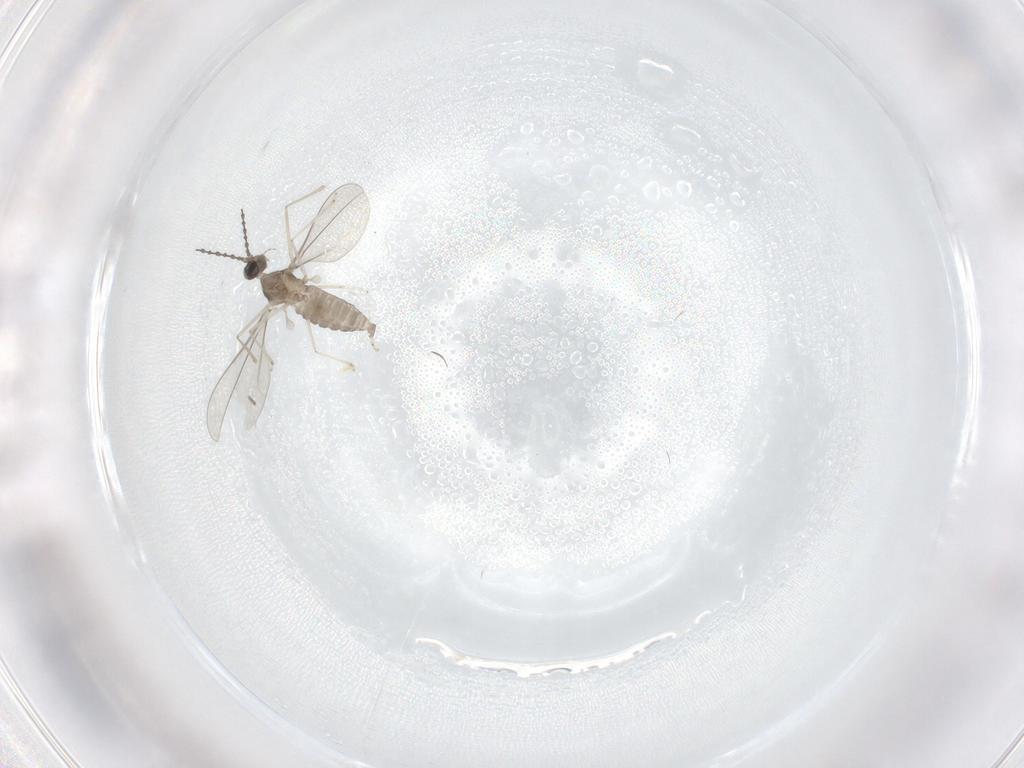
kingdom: Animalia
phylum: Arthropoda
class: Insecta
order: Diptera
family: Cecidomyiidae
